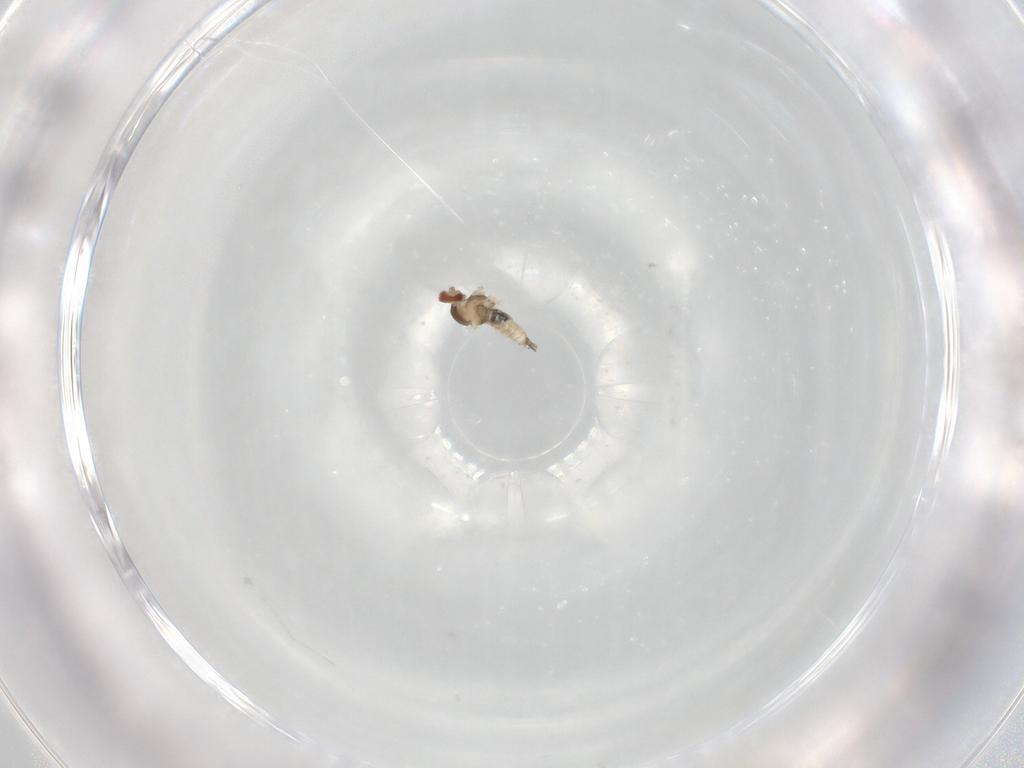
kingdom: Animalia
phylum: Arthropoda
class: Insecta
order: Diptera
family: Cecidomyiidae
